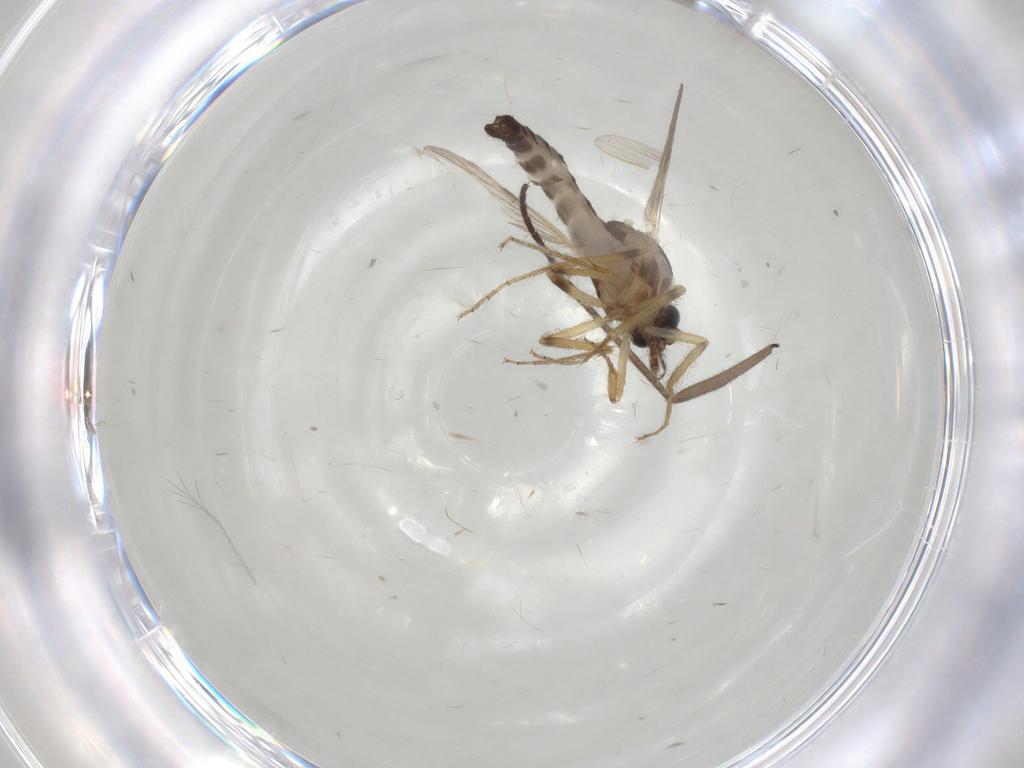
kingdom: Animalia
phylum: Arthropoda
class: Insecta
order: Diptera
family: Ceratopogonidae
